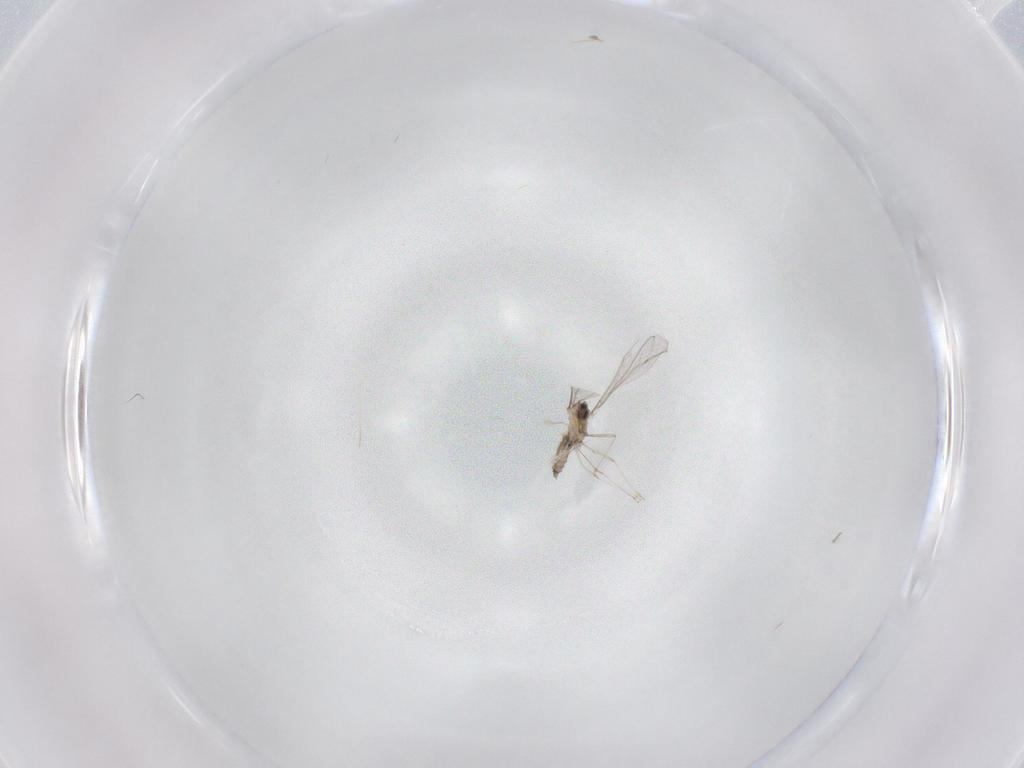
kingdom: Animalia
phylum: Arthropoda
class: Insecta
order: Diptera
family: Cecidomyiidae
